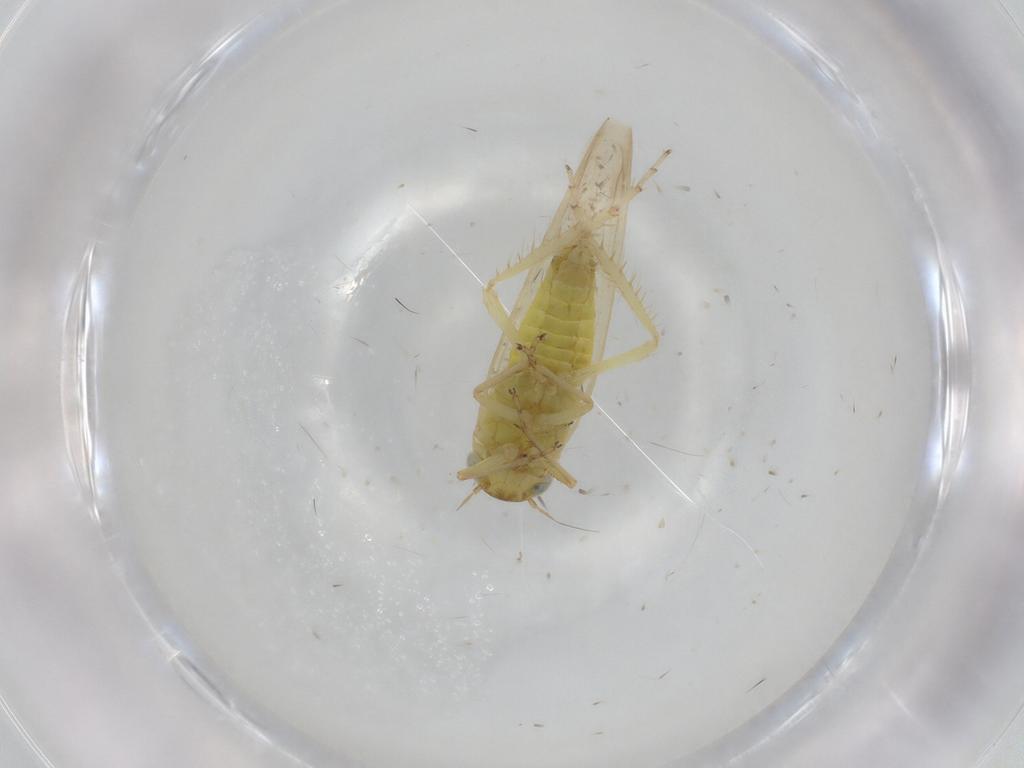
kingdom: Animalia
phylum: Arthropoda
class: Insecta
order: Hemiptera
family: Cicadellidae
